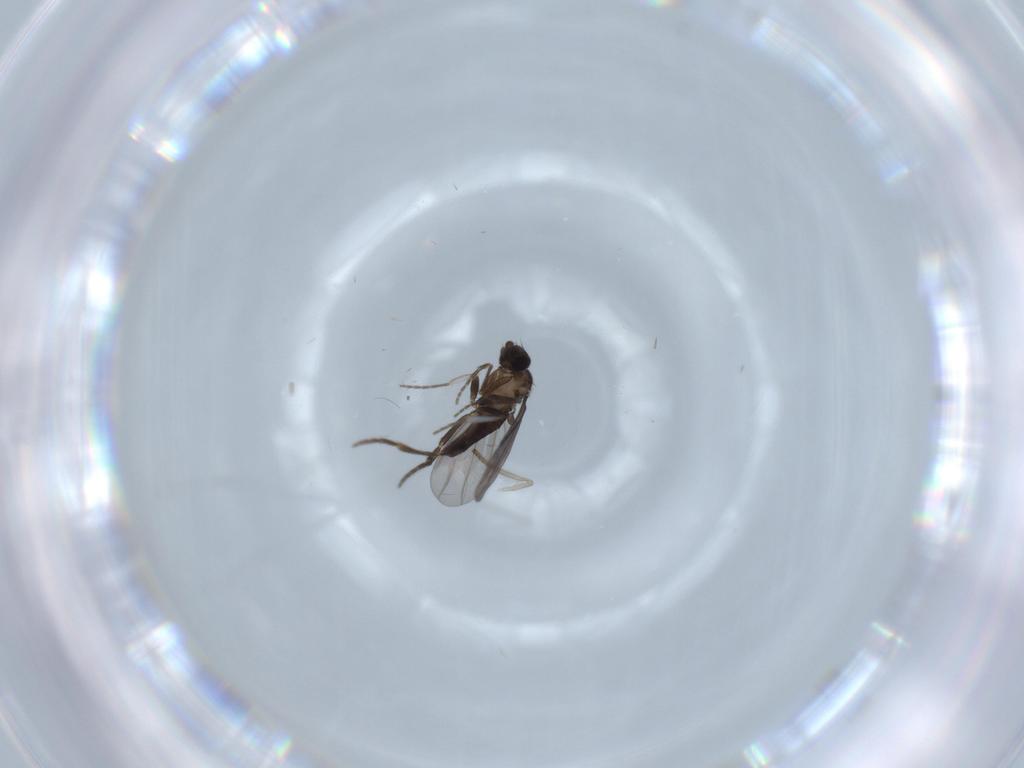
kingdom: Animalia
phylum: Arthropoda
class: Insecta
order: Diptera
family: Phoridae
